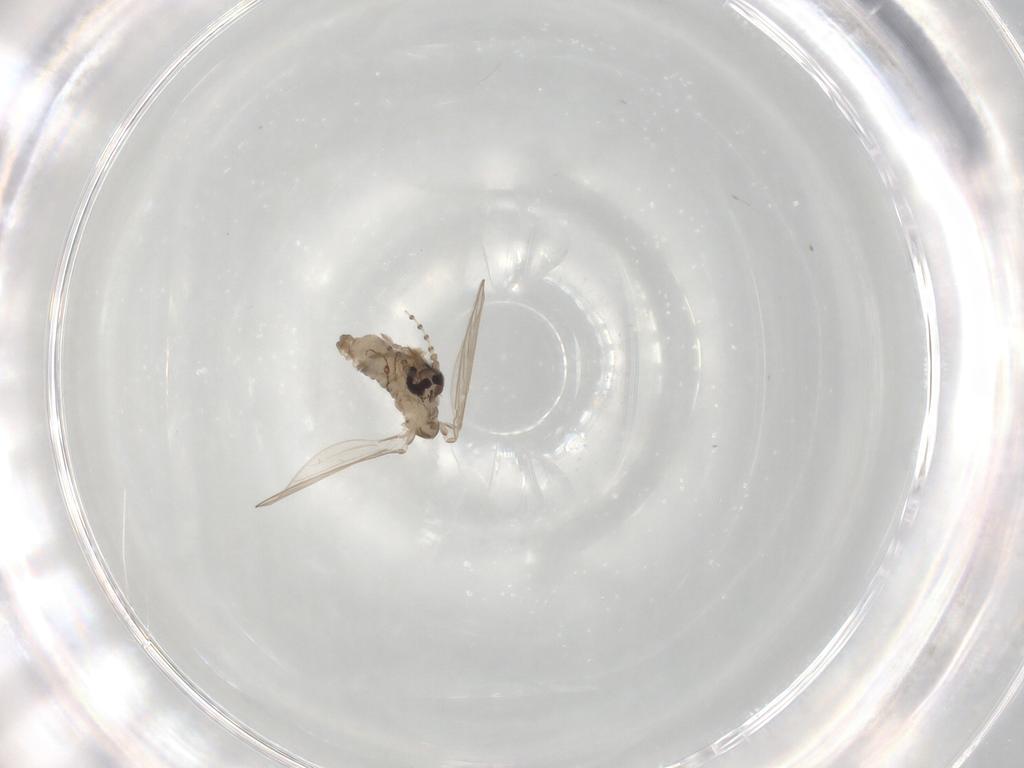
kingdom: Animalia
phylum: Arthropoda
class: Insecta
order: Diptera
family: Psychodidae
